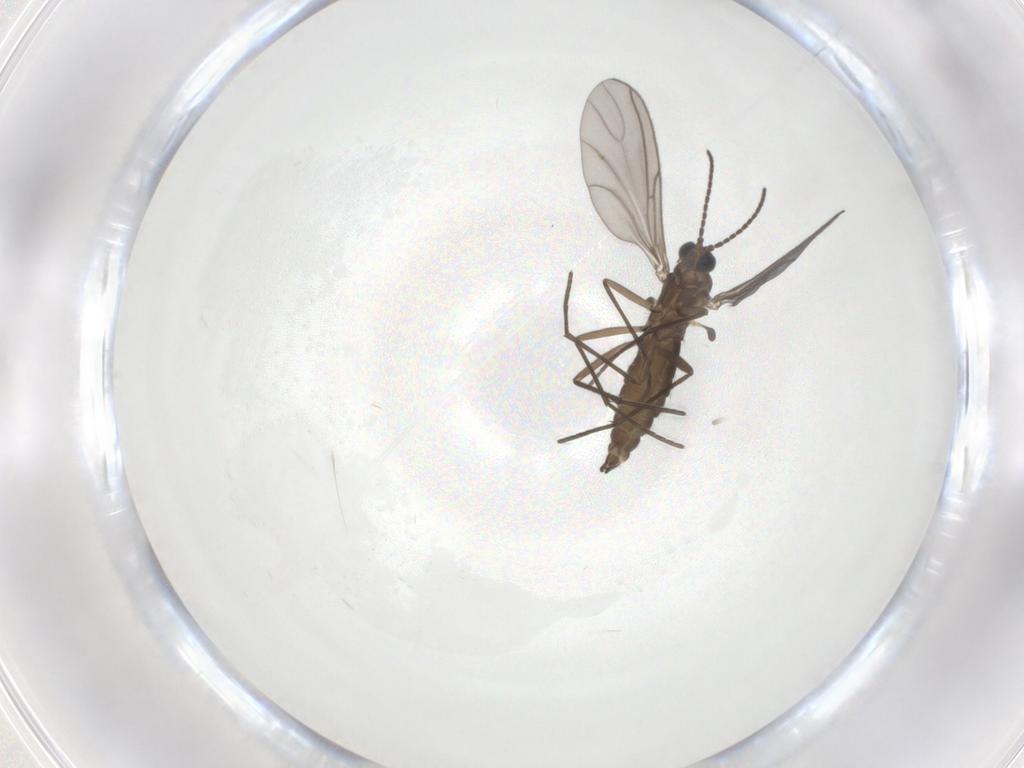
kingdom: Animalia
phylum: Arthropoda
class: Insecta
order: Diptera
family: Sciaridae
